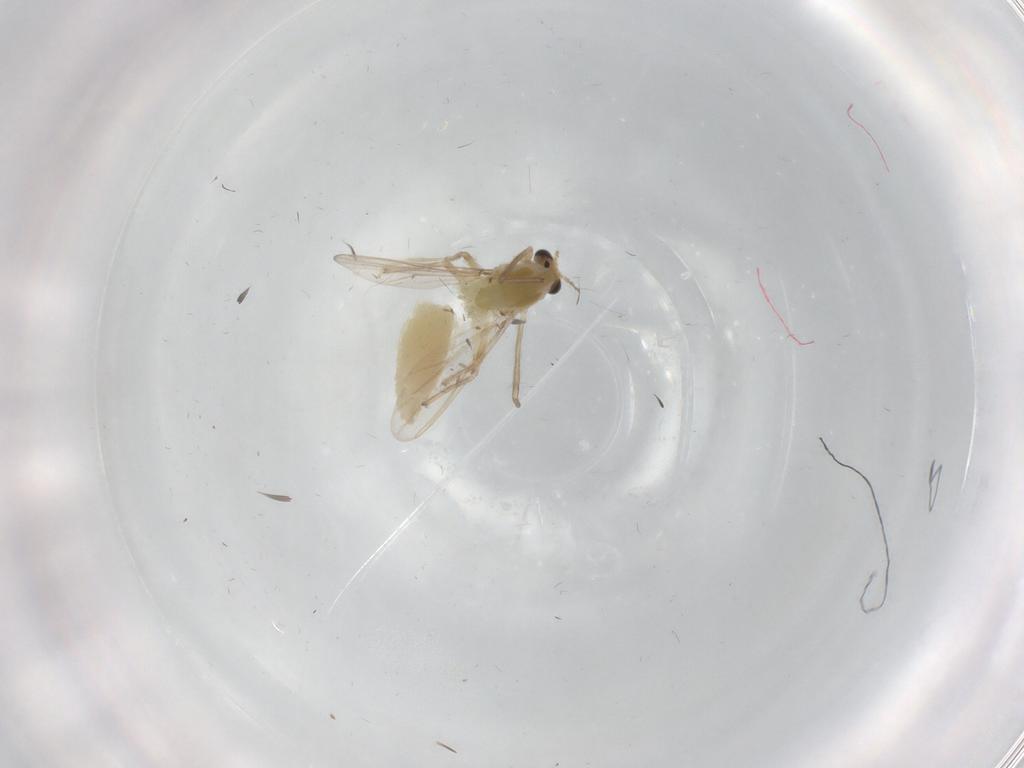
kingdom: Animalia
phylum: Arthropoda
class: Insecta
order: Diptera
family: Chironomidae
